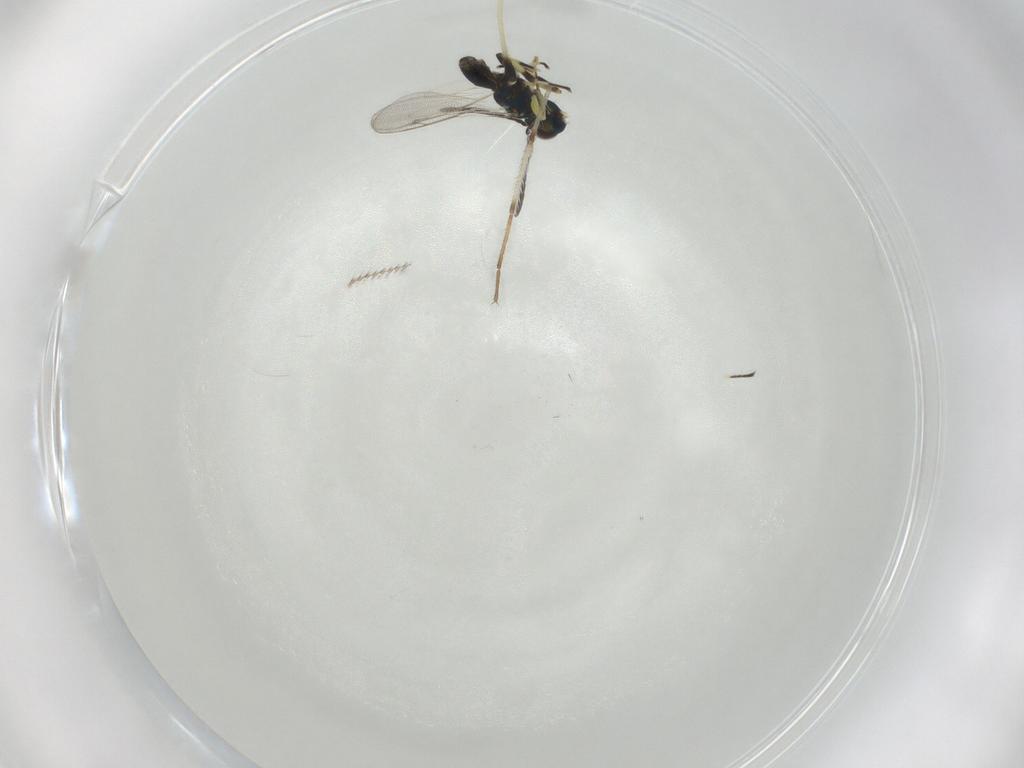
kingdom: Animalia
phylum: Arthropoda
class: Insecta
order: Hymenoptera
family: Eupelmidae
